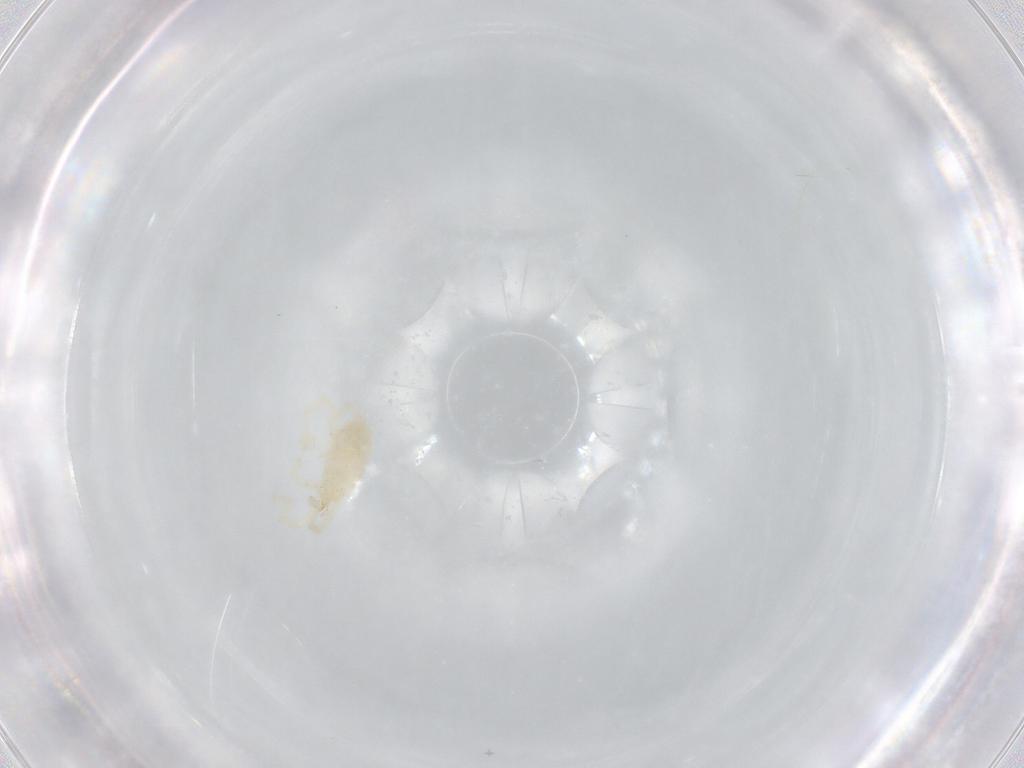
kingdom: Animalia
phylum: Arthropoda
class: Arachnida
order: Trombidiformes
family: Erythraeidae
